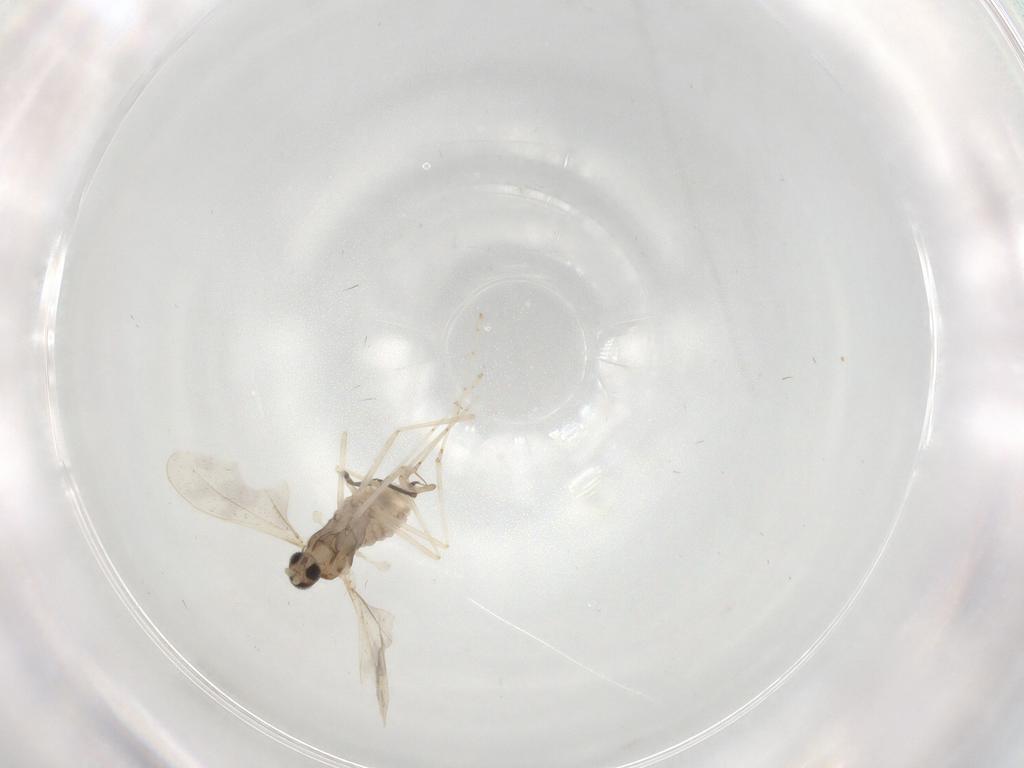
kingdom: Animalia
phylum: Arthropoda
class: Insecta
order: Diptera
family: Cecidomyiidae
